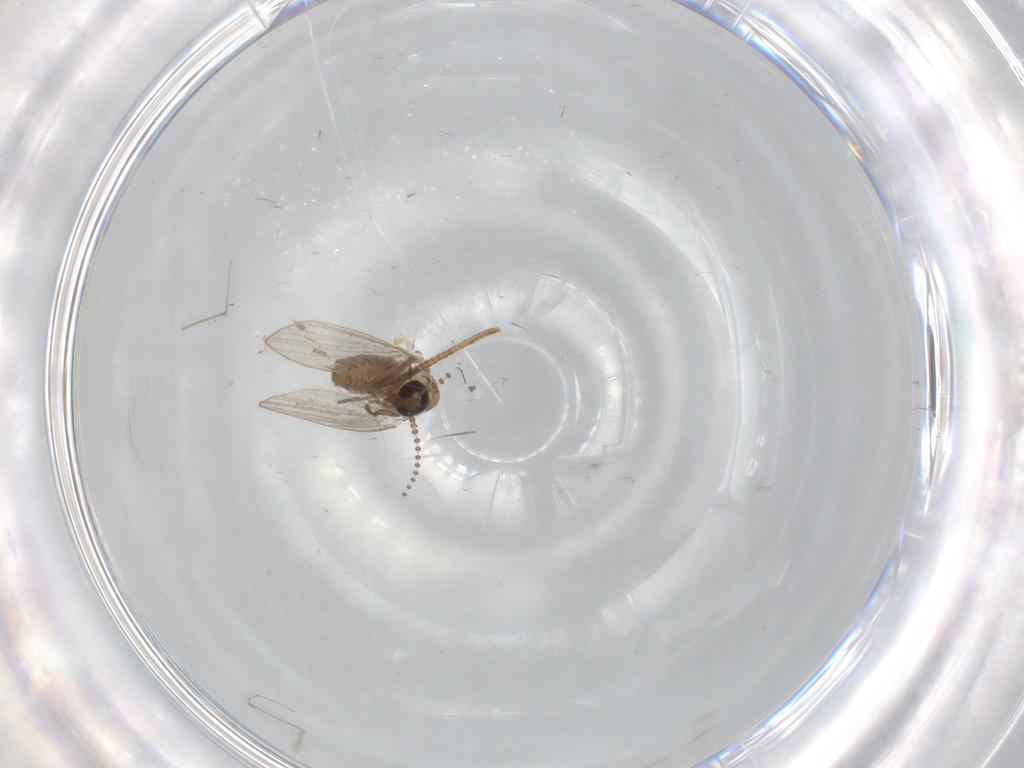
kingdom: Animalia
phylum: Arthropoda
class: Insecta
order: Diptera
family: Psychodidae
